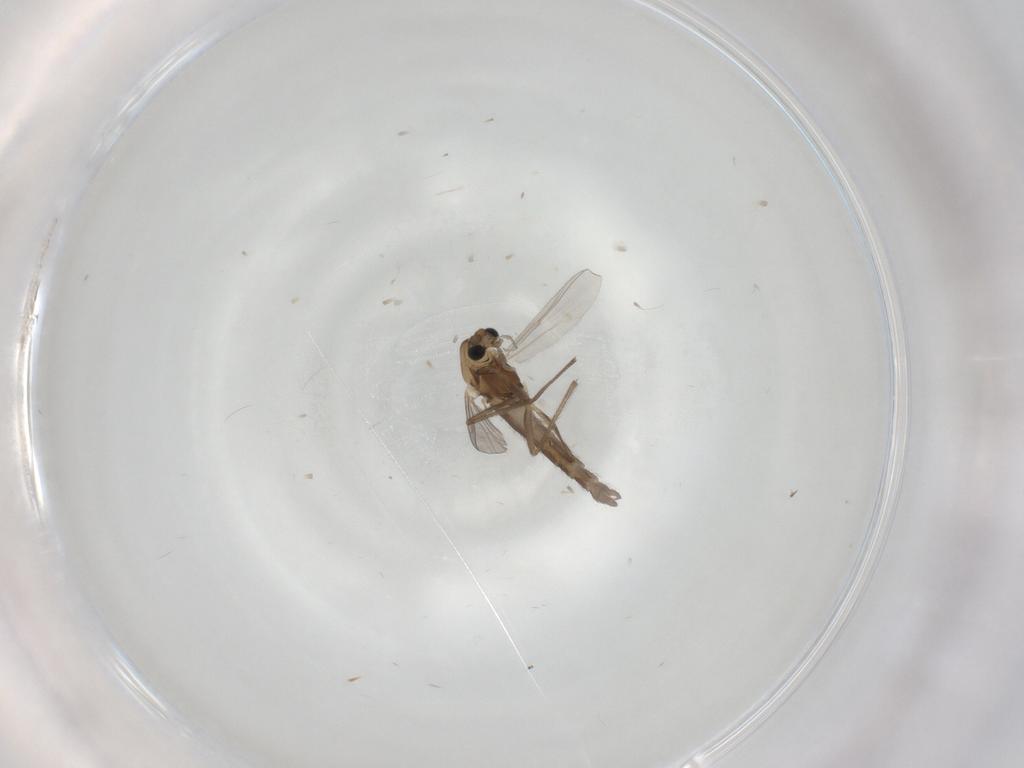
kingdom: Animalia
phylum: Arthropoda
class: Insecta
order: Diptera
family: Chironomidae
